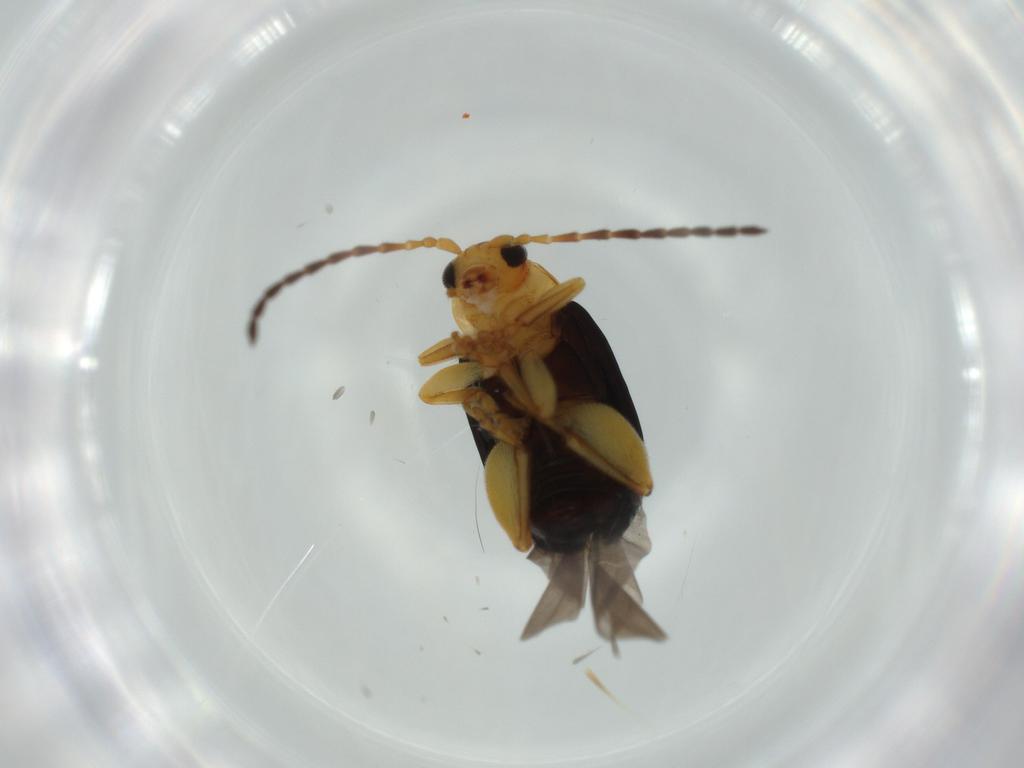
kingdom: Animalia
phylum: Arthropoda
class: Insecta
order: Coleoptera
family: Chrysomelidae
